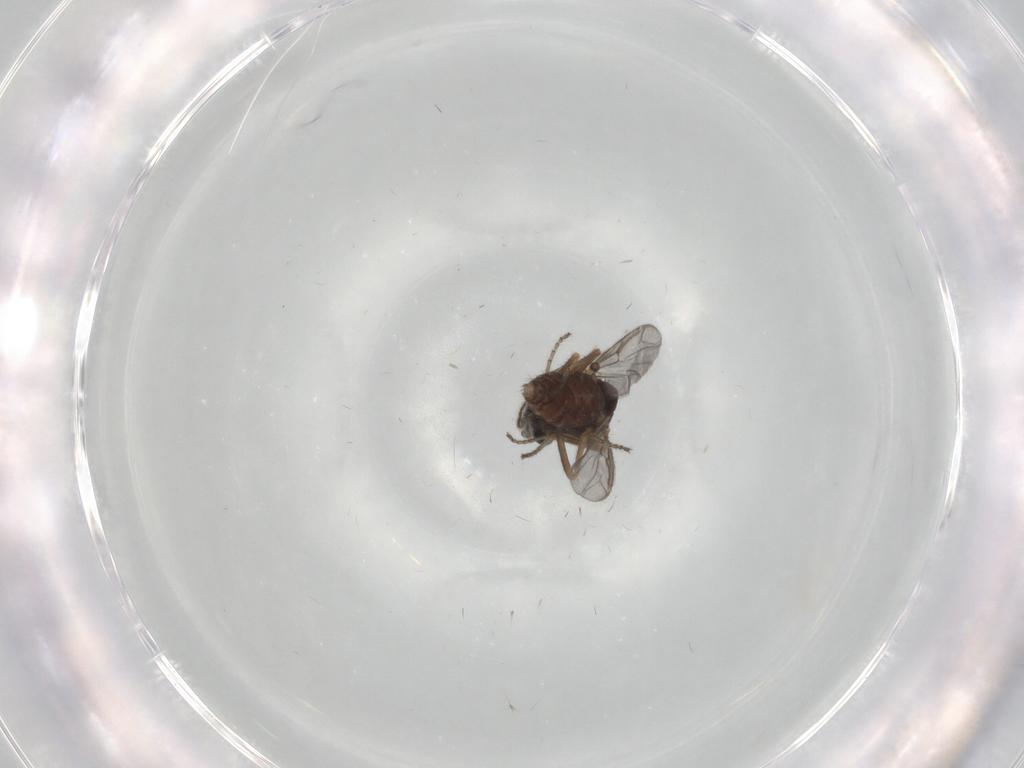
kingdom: Animalia
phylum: Arthropoda
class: Insecta
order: Diptera
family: Ceratopogonidae
